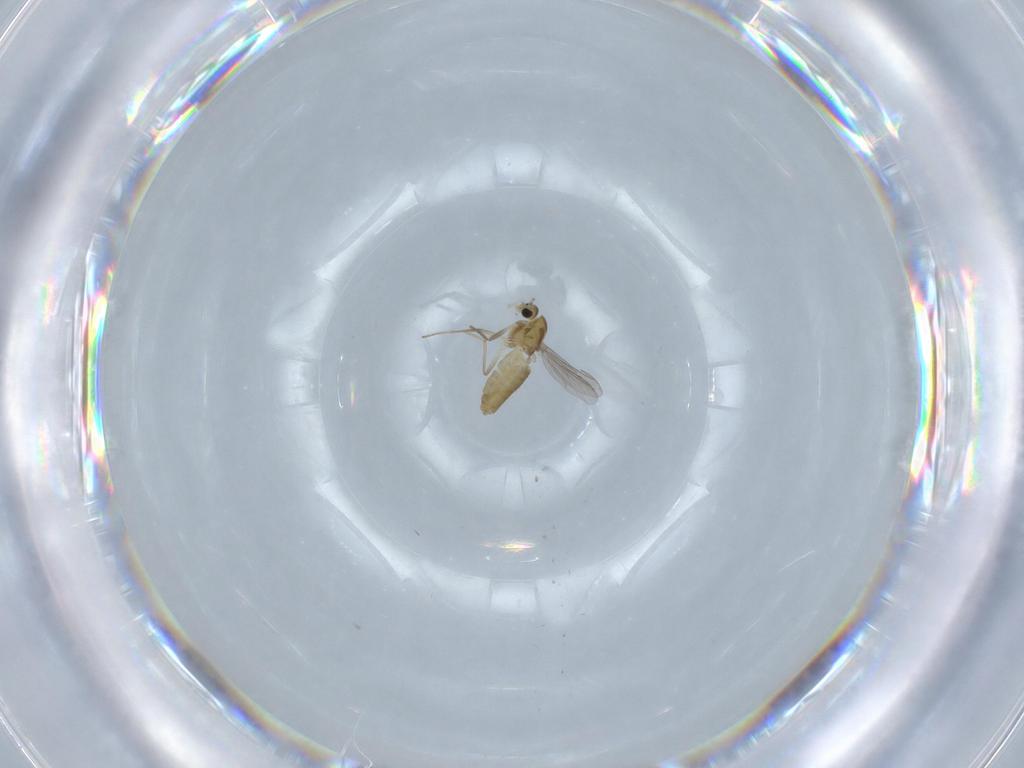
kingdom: Animalia
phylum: Arthropoda
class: Insecta
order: Diptera
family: Chironomidae
